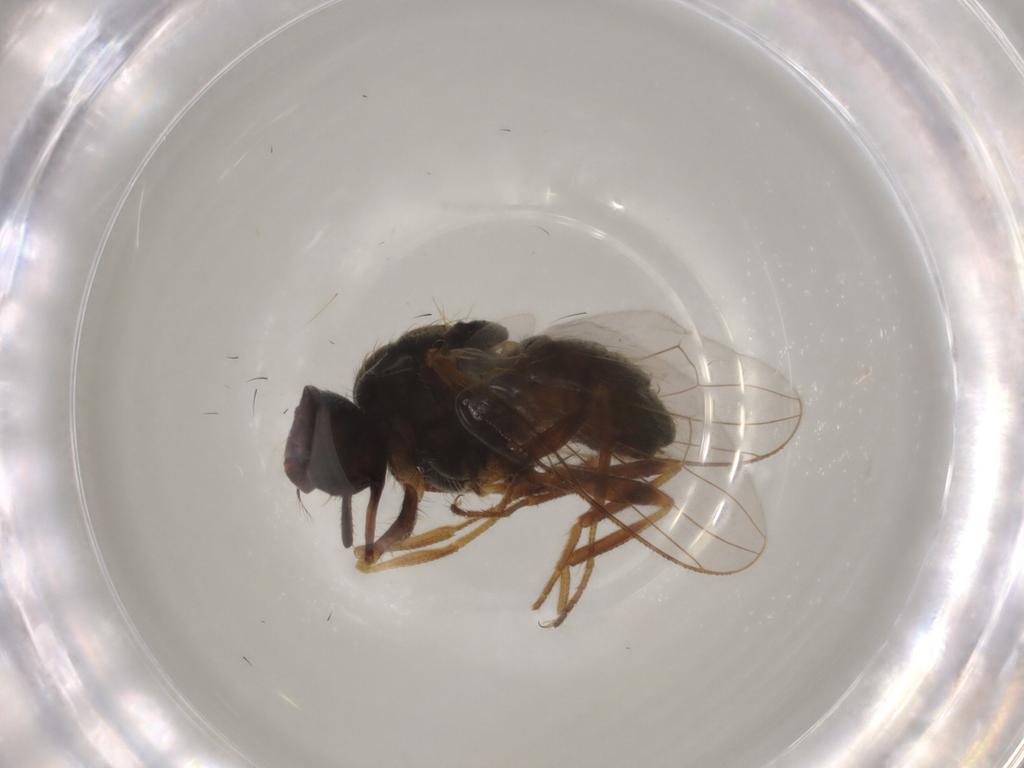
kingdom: Animalia
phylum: Arthropoda
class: Insecta
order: Diptera
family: Muscidae
